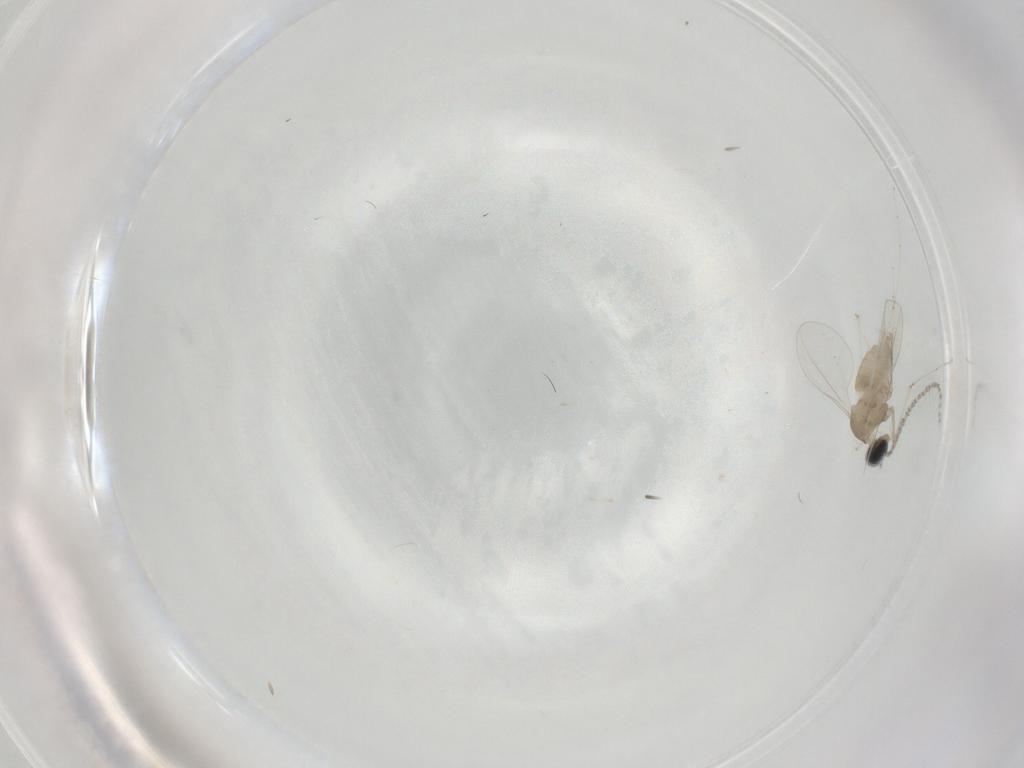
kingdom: Animalia
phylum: Arthropoda
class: Insecta
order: Diptera
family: Cecidomyiidae
